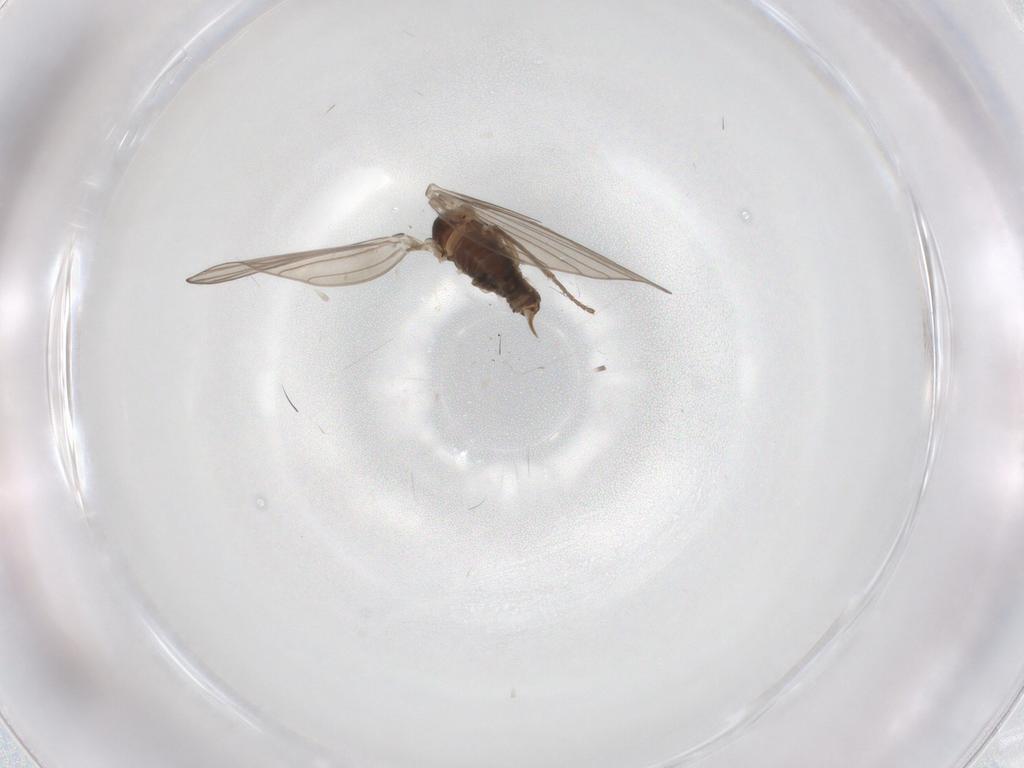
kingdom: Animalia
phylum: Arthropoda
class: Insecta
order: Diptera
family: Psychodidae
